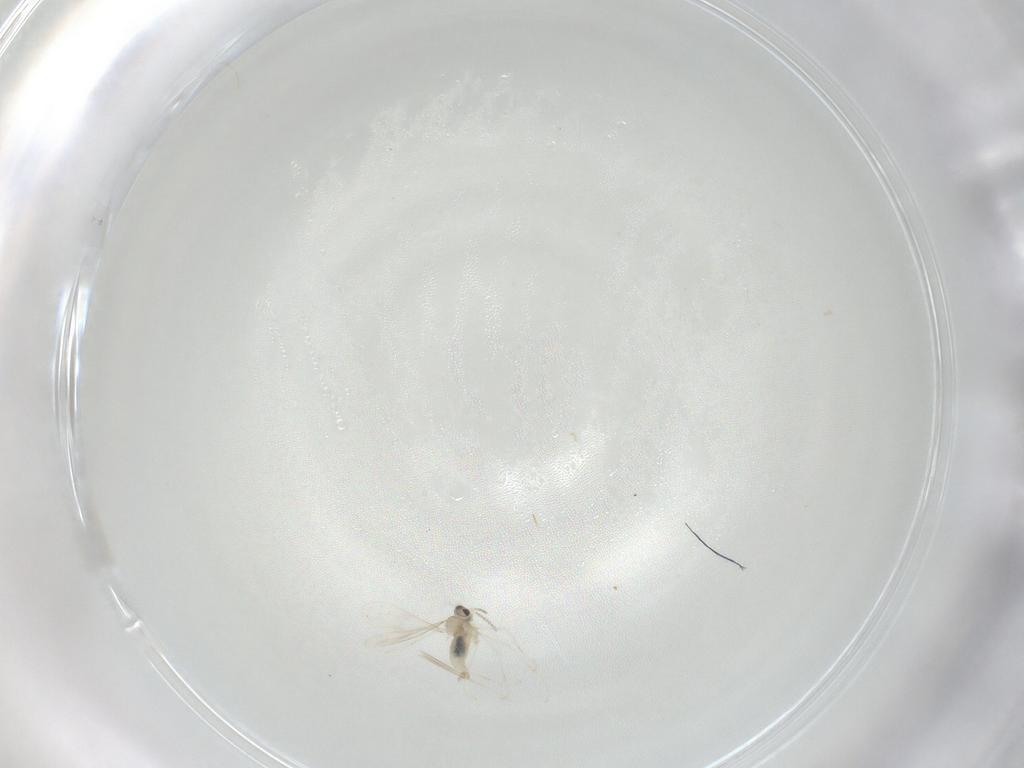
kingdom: Animalia
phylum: Arthropoda
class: Insecta
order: Diptera
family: Cecidomyiidae
